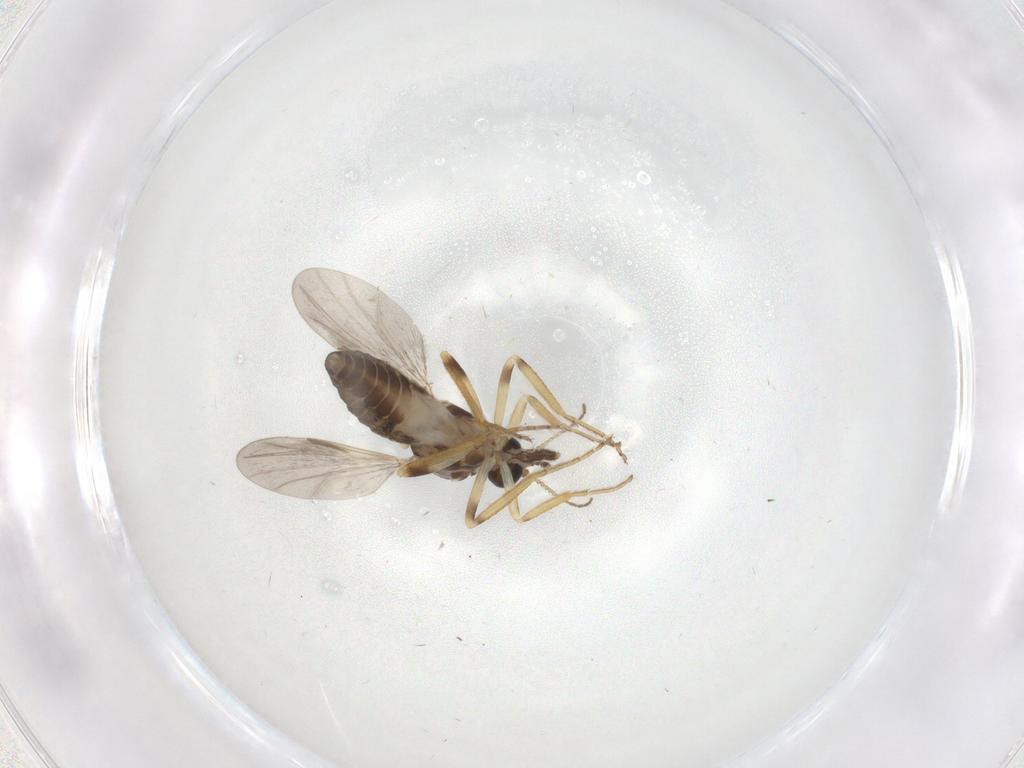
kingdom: Animalia
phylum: Arthropoda
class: Insecta
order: Diptera
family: Ceratopogonidae
